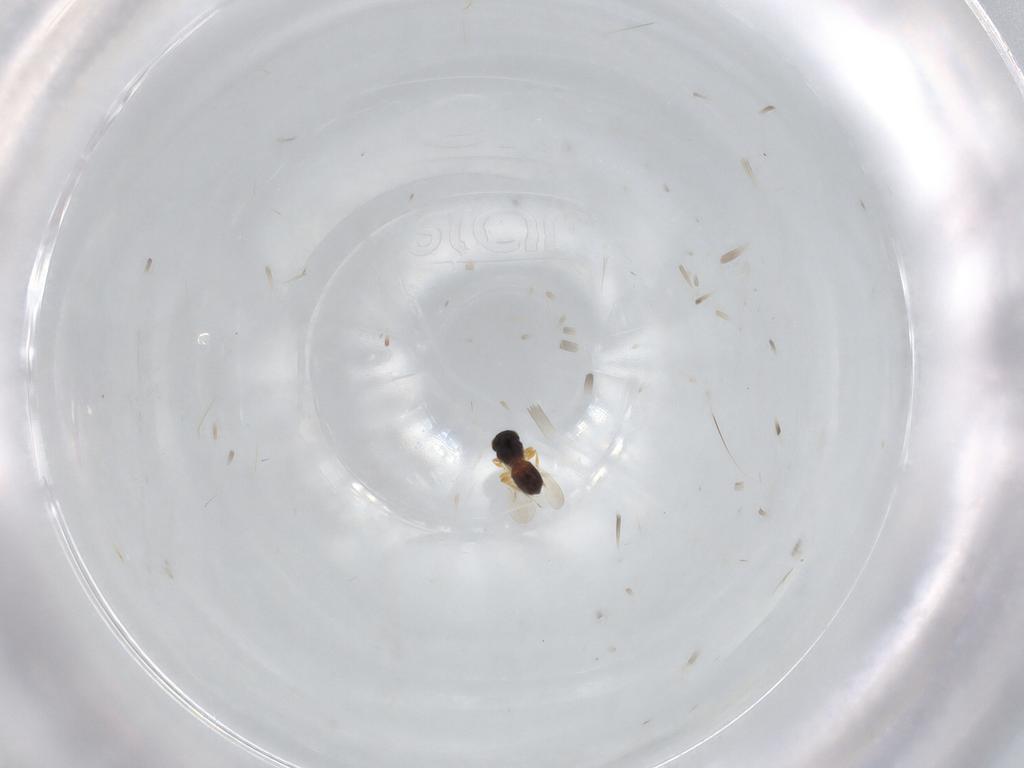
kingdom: Animalia
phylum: Arthropoda
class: Insecta
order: Hymenoptera
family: Platygastridae
